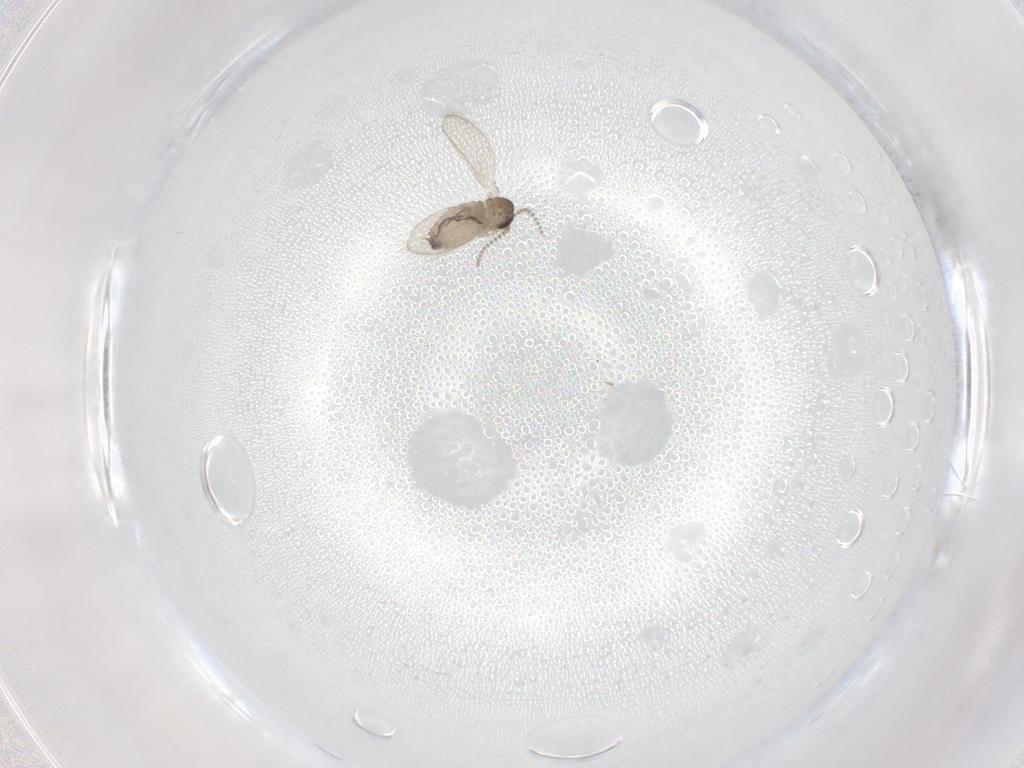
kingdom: Animalia
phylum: Arthropoda
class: Insecta
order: Diptera
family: Psychodidae
